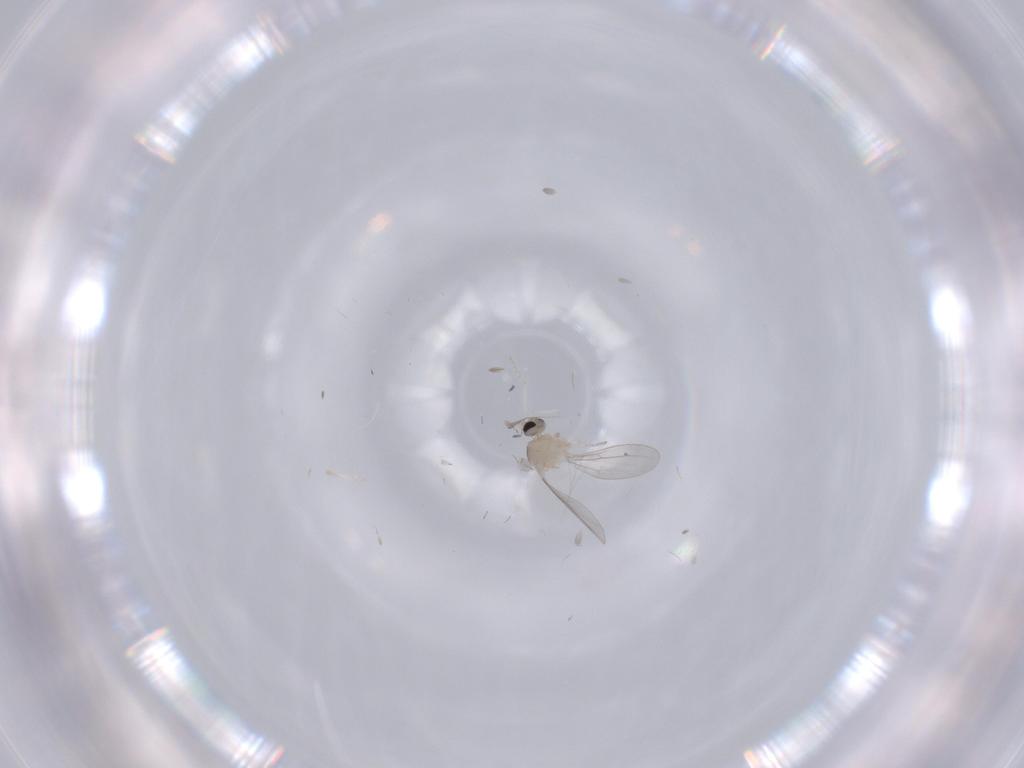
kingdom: Animalia
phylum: Arthropoda
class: Insecta
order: Diptera
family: Cecidomyiidae
